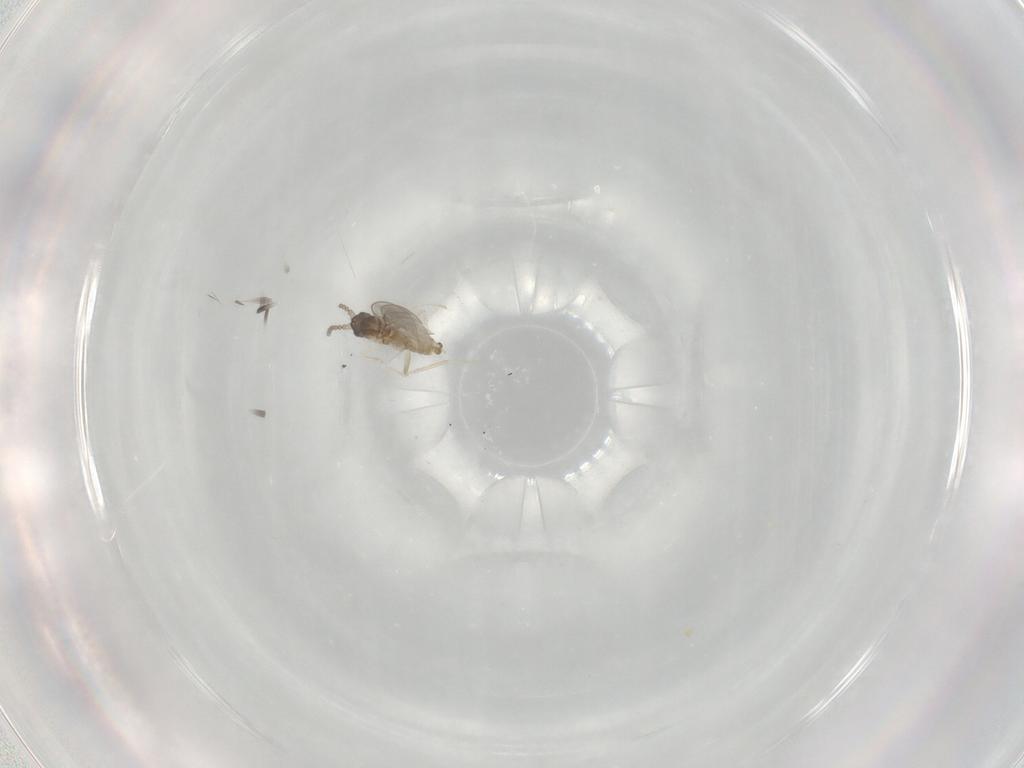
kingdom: Animalia
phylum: Arthropoda
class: Insecta
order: Diptera
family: Cecidomyiidae
